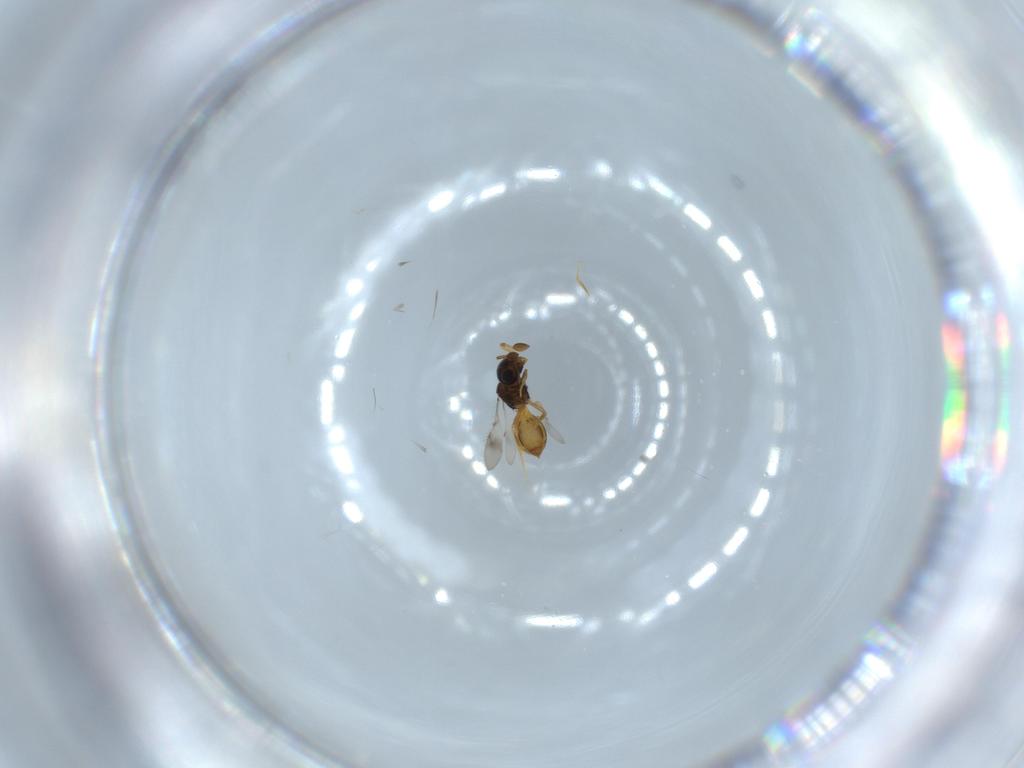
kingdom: Animalia
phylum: Arthropoda
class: Insecta
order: Hymenoptera
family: Scelionidae
